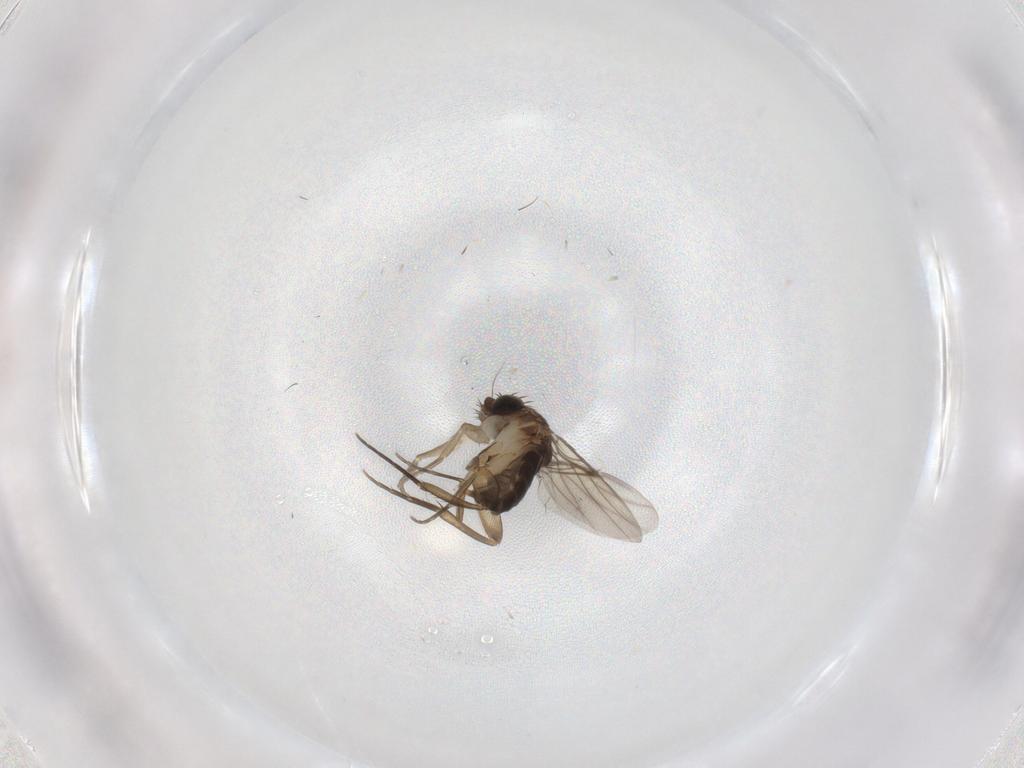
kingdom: Animalia
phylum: Arthropoda
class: Insecta
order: Diptera
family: Phoridae
